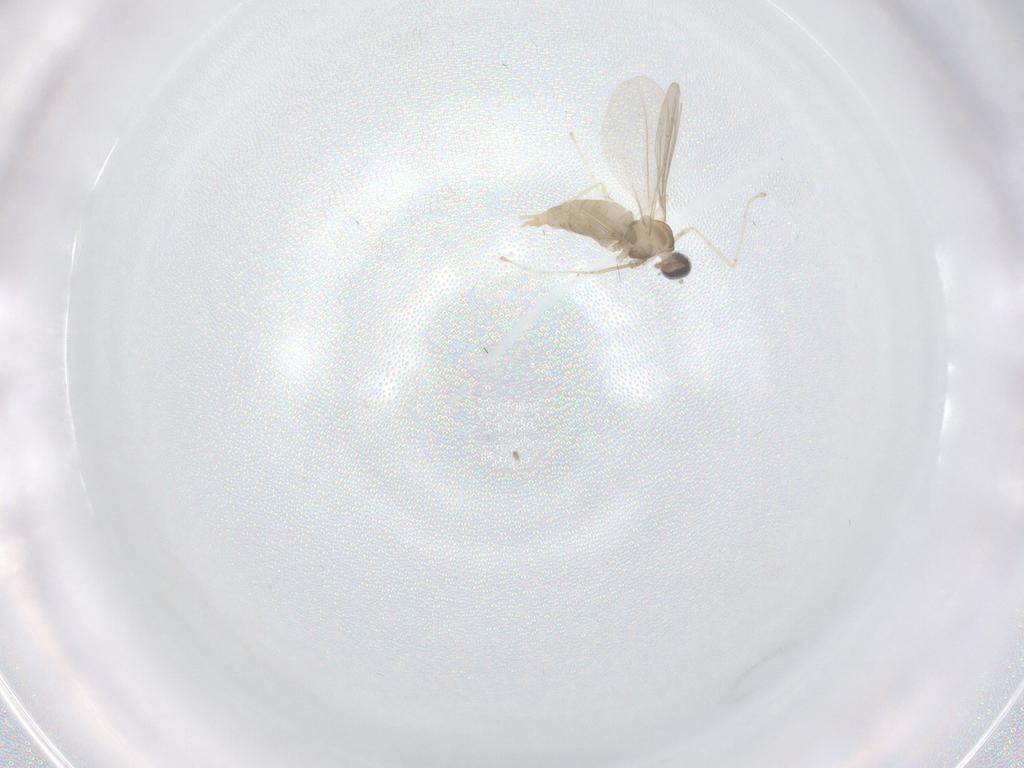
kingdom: Animalia
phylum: Arthropoda
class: Insecta
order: Diptera
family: Cecidomyiidae
